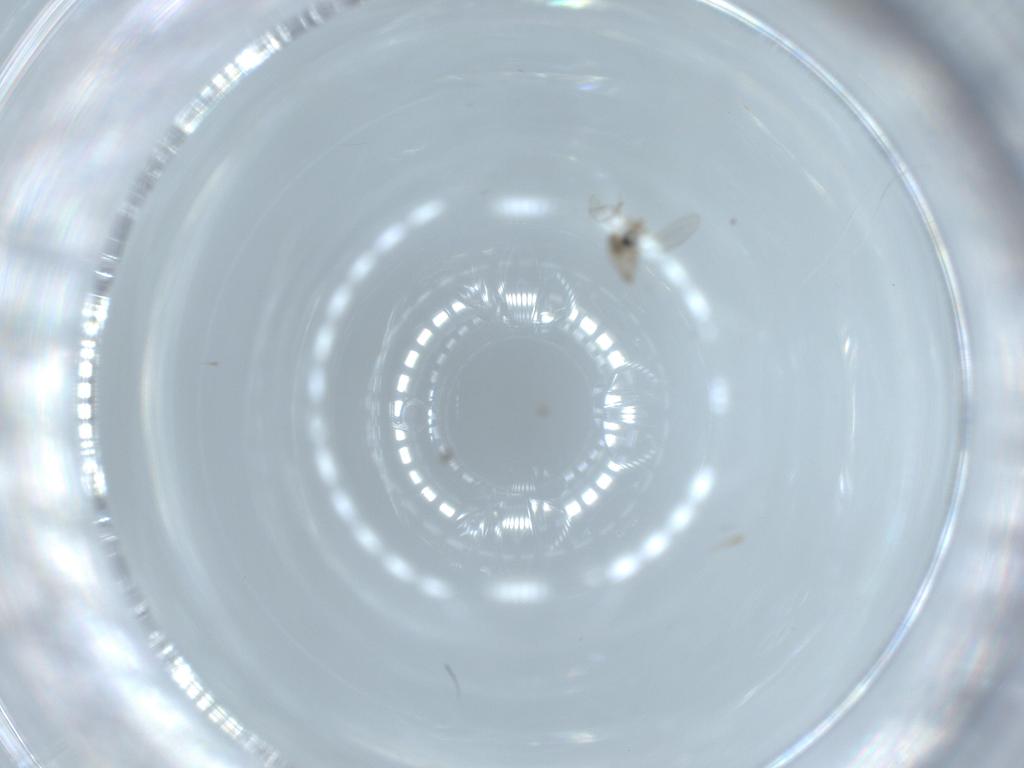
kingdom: Animalia
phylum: Arthropoda
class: Insecta
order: Diptera
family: Cecidomyiidae
